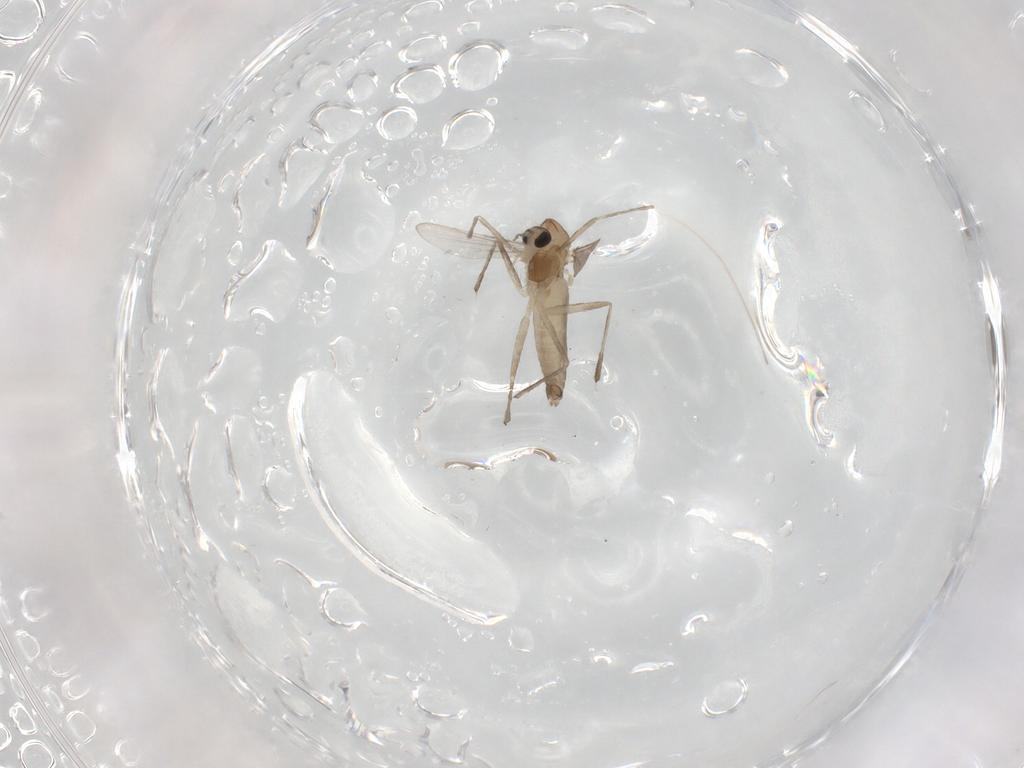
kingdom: Animalia
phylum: Arthropoda
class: Insecta
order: Diptera
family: Chironomidae
